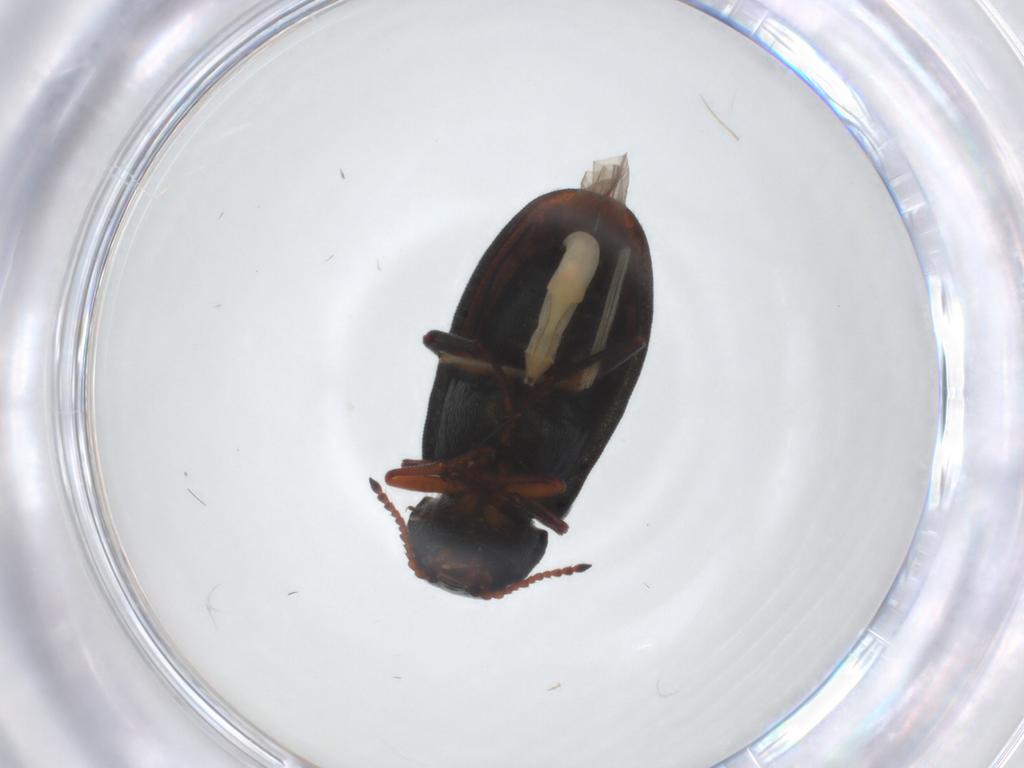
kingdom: Animalia
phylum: Arthropoda
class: Insecta
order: Coleoptera
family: Melyridae
